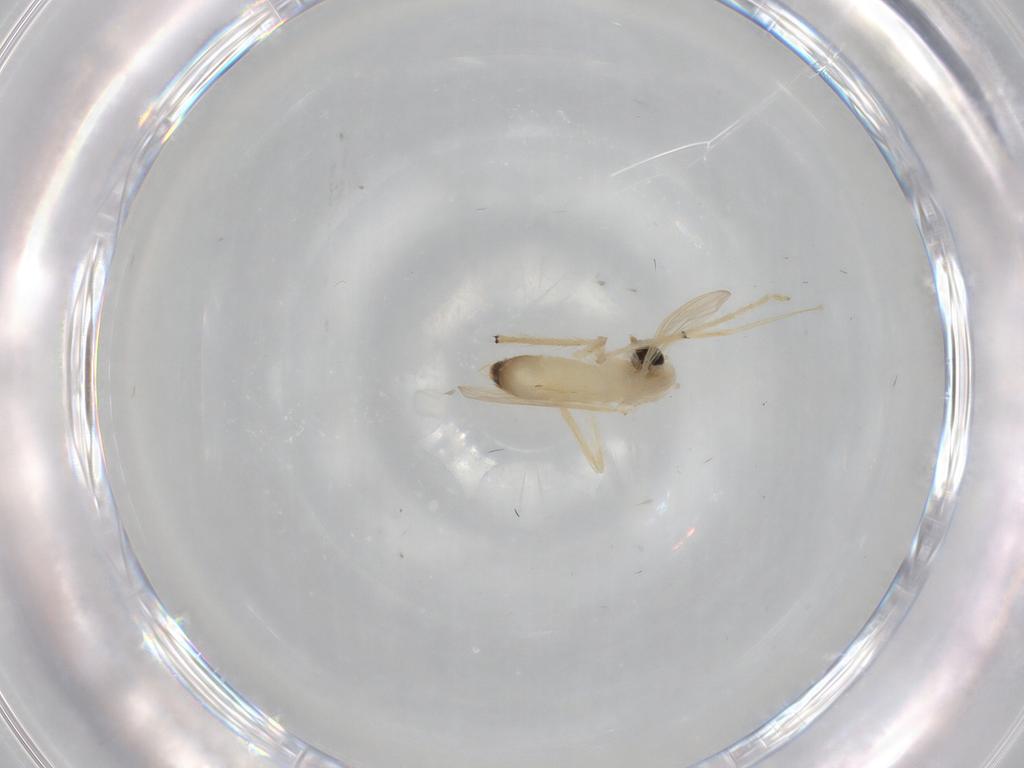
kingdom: Animalia
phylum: Arthropoda
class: Insecta
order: Diptera
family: Chironomidae
